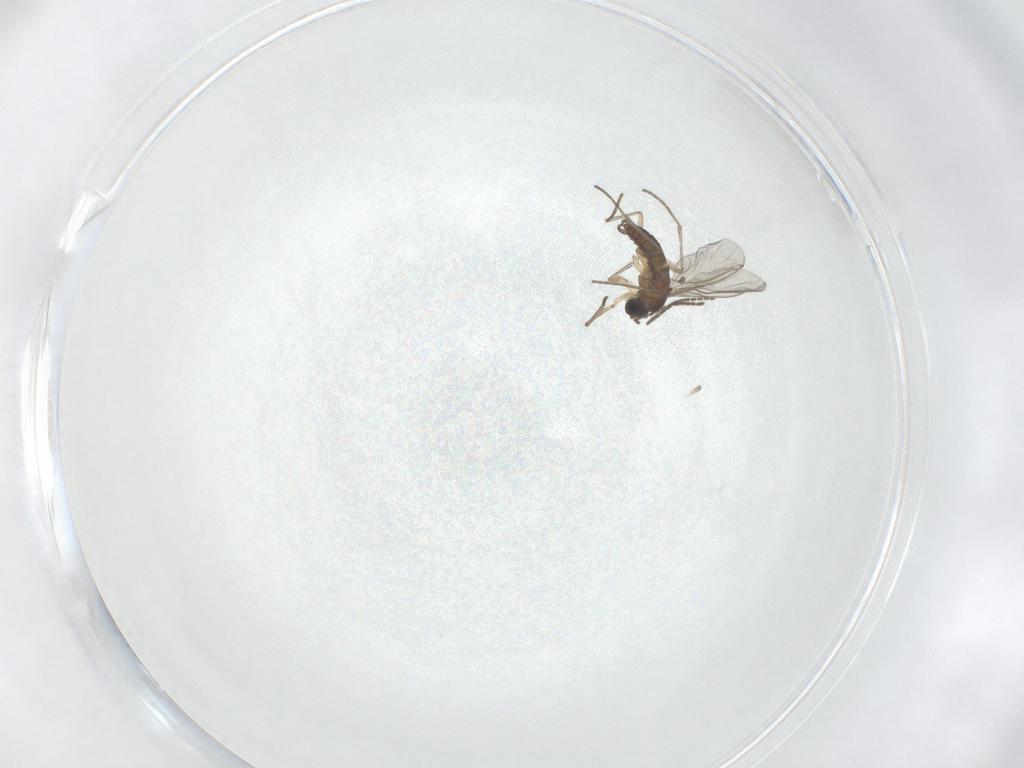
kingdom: Animalia
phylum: Arthropoda
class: Insecta
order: Diptera
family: Sciaridae
